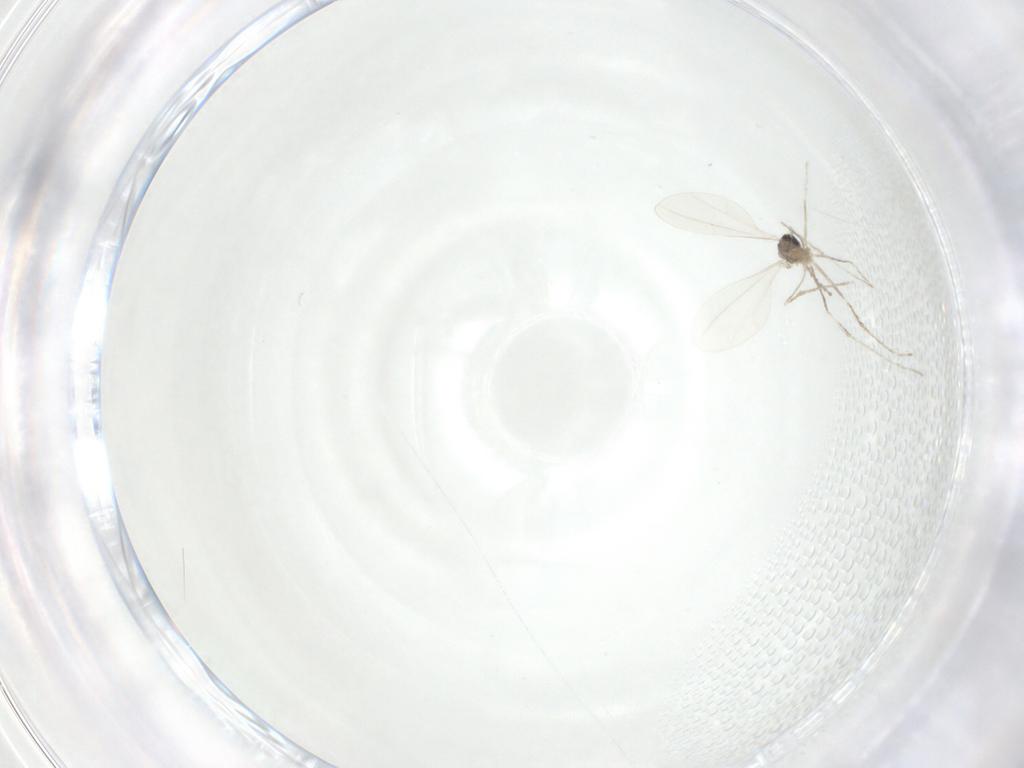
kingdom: Animalia
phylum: Arthropoda
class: Insecta
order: Diptera
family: Cecidomyiidae
